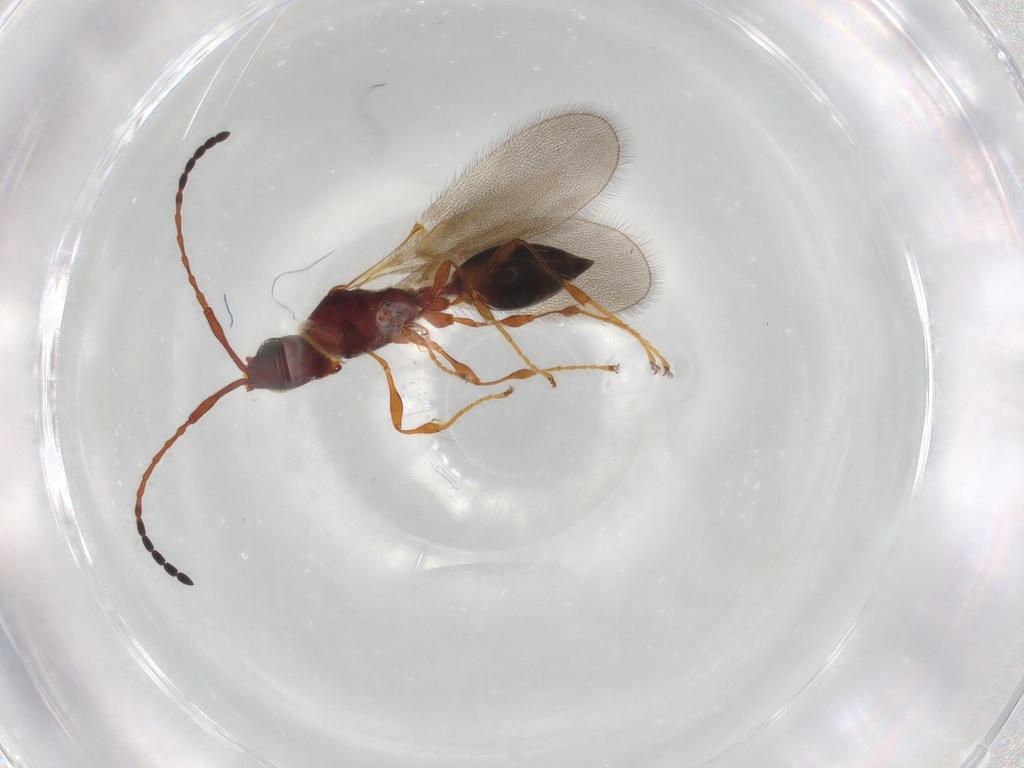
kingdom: Animalia
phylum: Arthropoda
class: Insecta
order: Hymenoptera
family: Diapriidae
